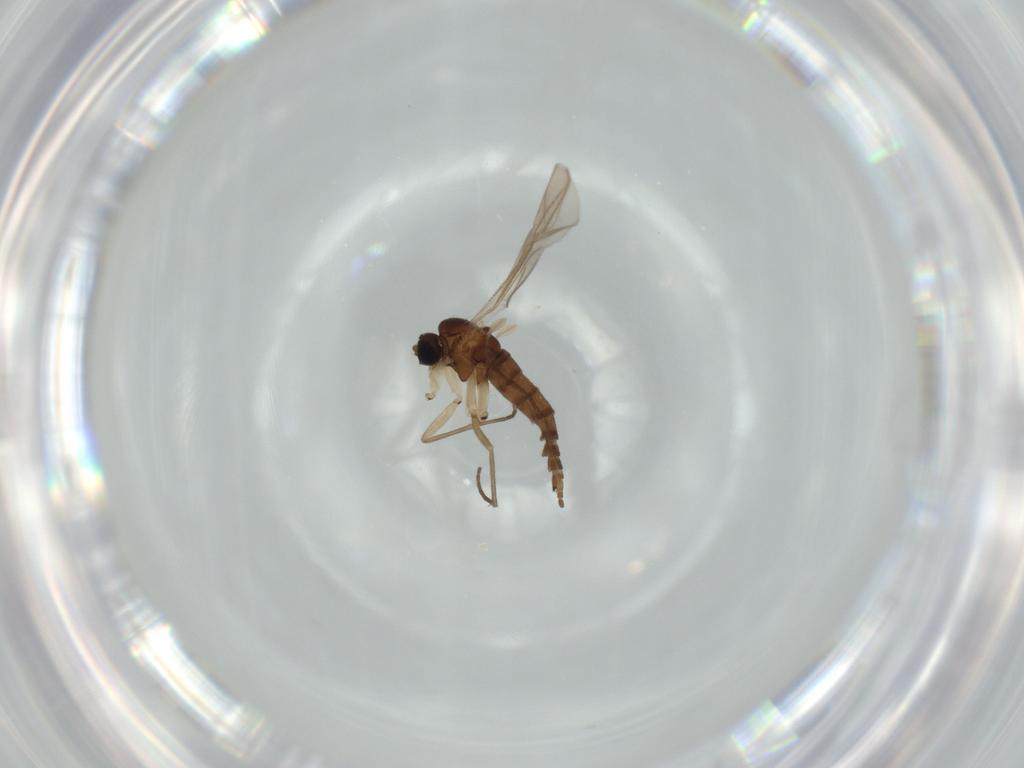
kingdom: Animalia
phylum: Arthropoda
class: Insecta
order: Diptera
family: Sciaridae
